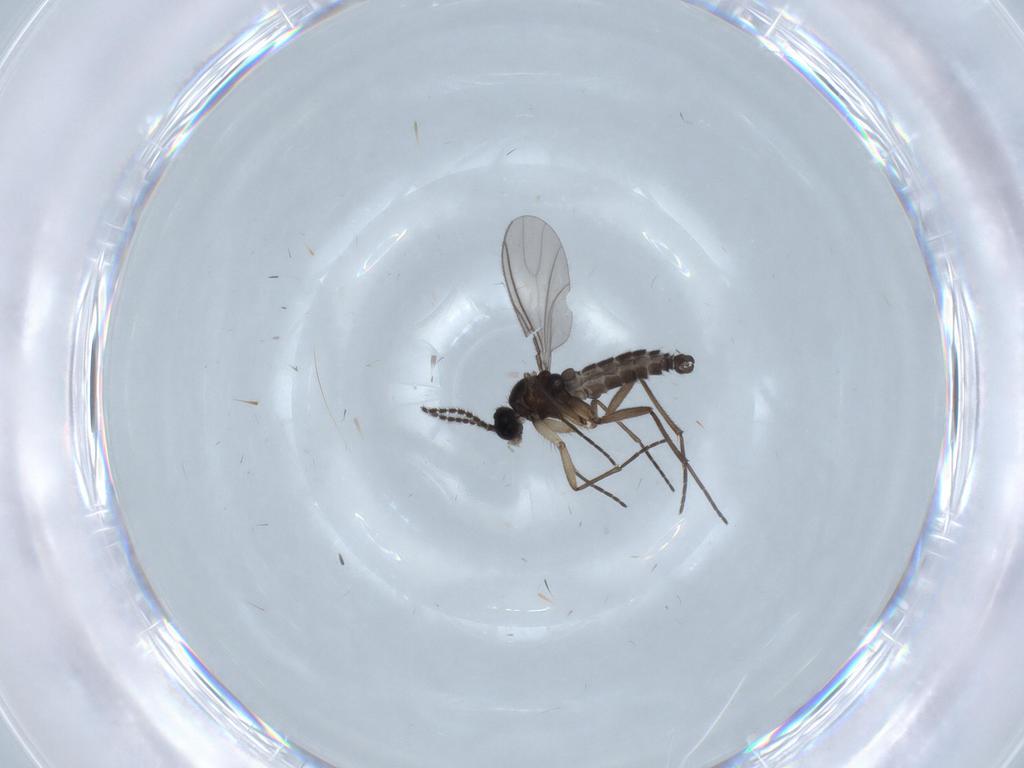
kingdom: Animalia
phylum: Arthropoda
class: Insecta
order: Diptera
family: Limoniidae
